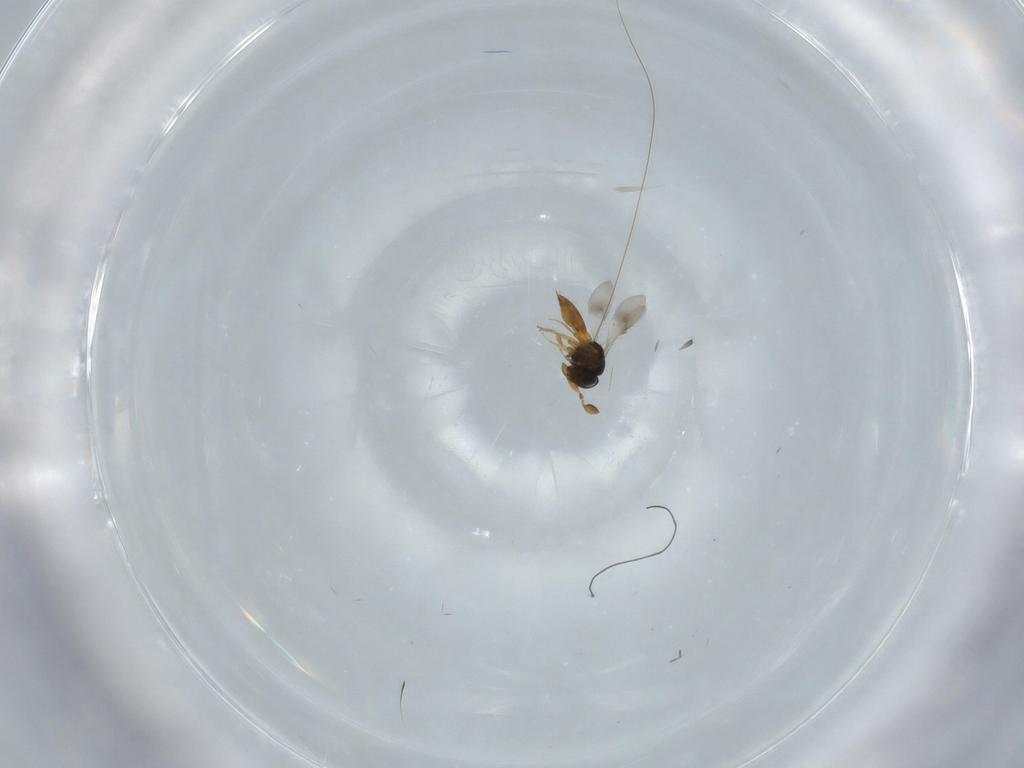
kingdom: Animalia
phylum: Arthropoda
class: Insecta
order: Hymenoptera
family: Scelionidae
